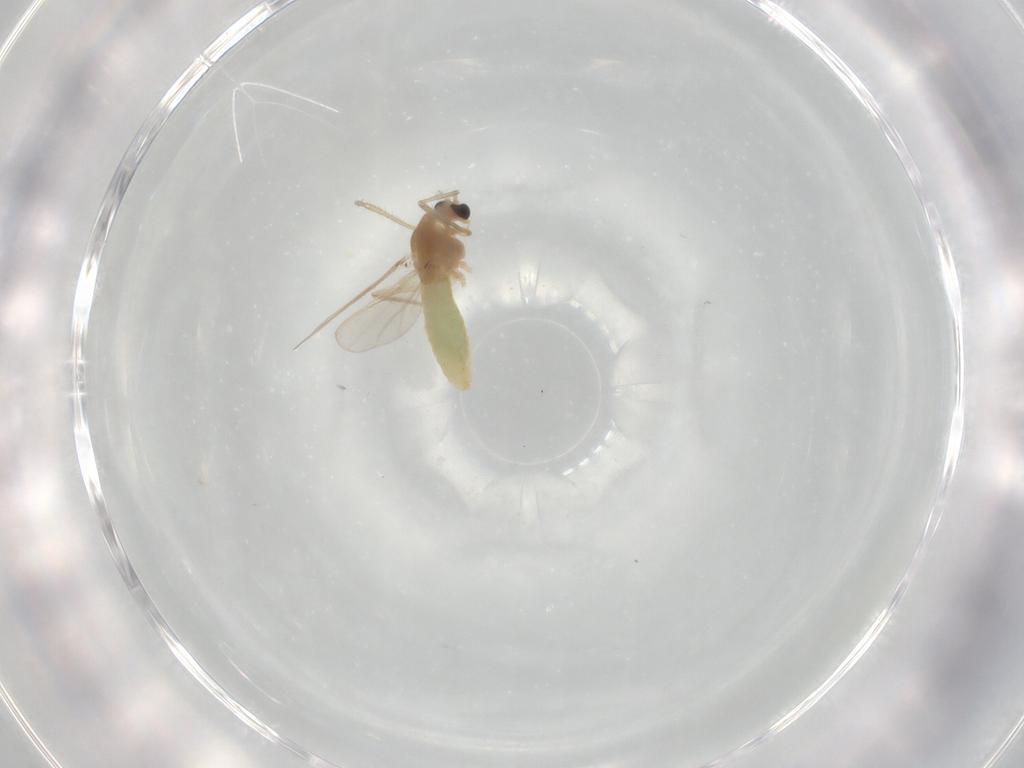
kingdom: Animalia
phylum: Arthropoda
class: Insecta
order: Diptera
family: Chironomidae
